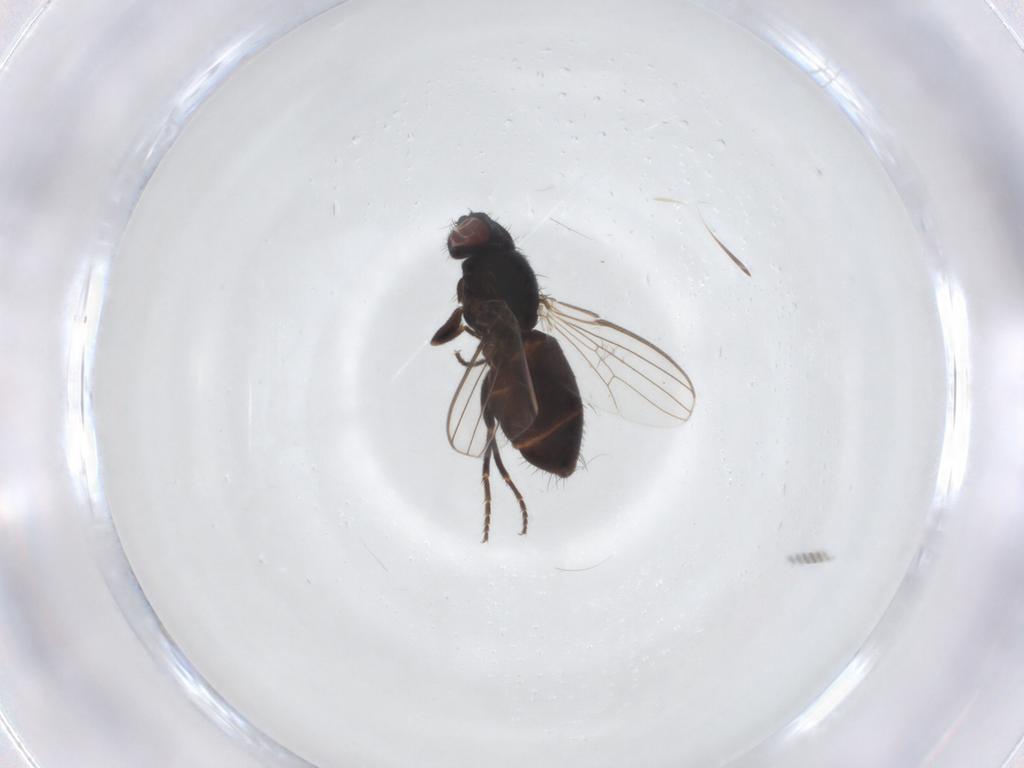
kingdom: Animalia
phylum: Arthropoda
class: Insecta
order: Diptera
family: Milichiidae
